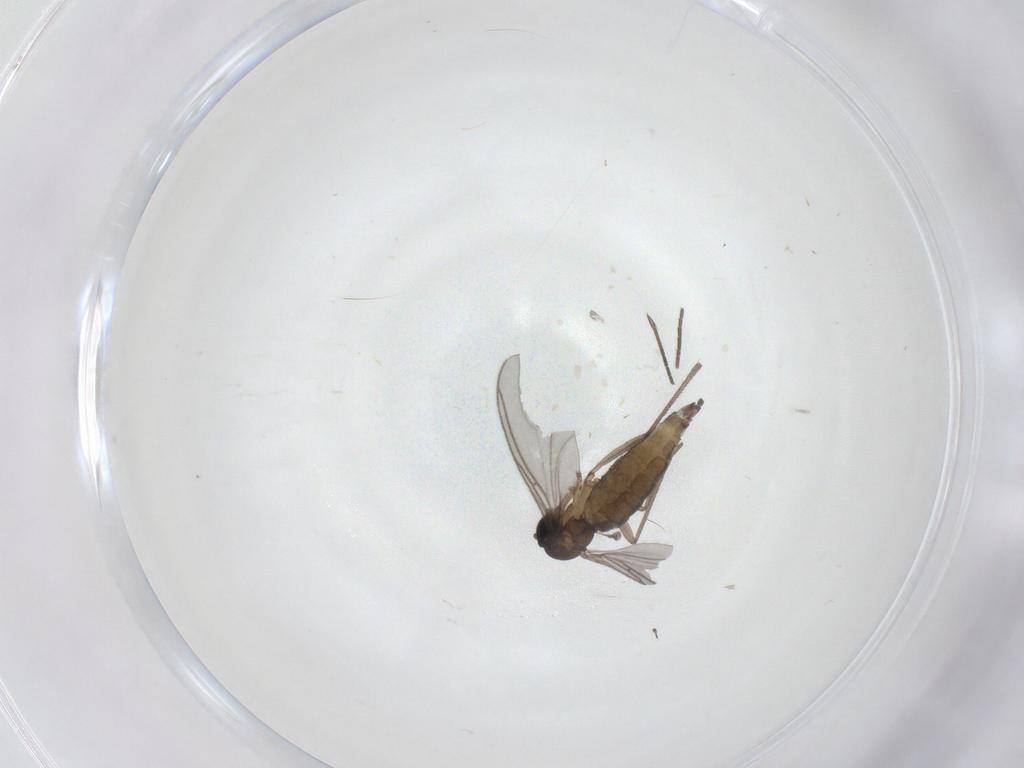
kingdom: Animalia
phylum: Arthropoda
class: Insecta
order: Diptera
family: Sciaridae
